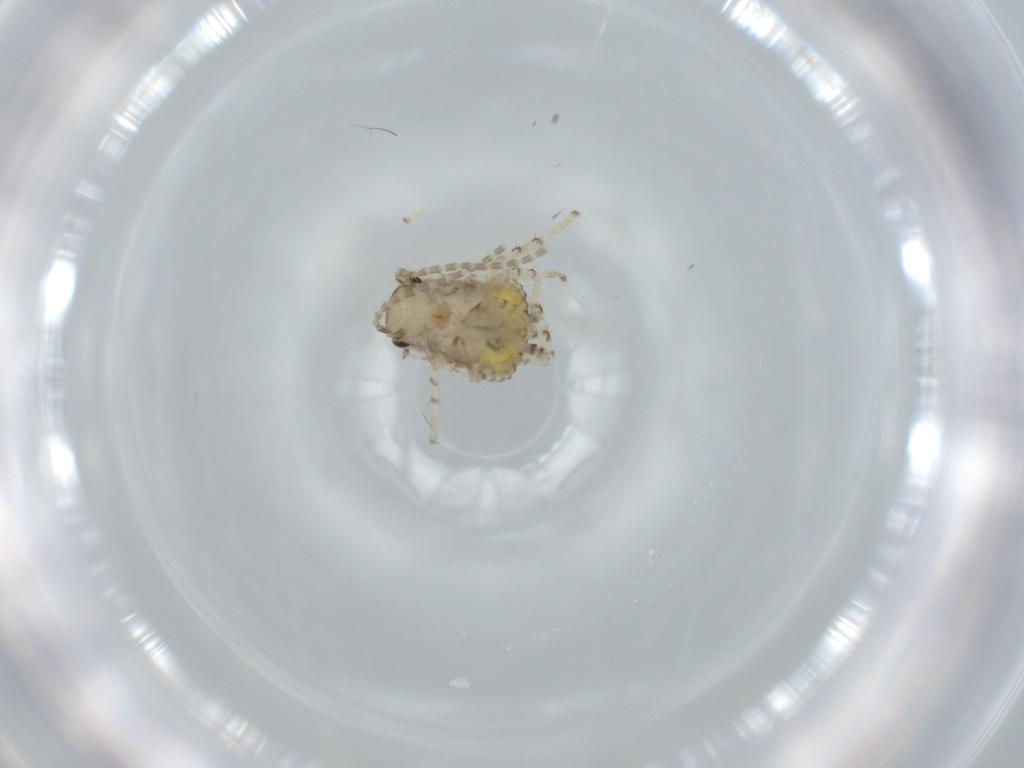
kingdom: Animalia
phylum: Arthropoda
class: Insecta
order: Blattodea
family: Ectobiidae
